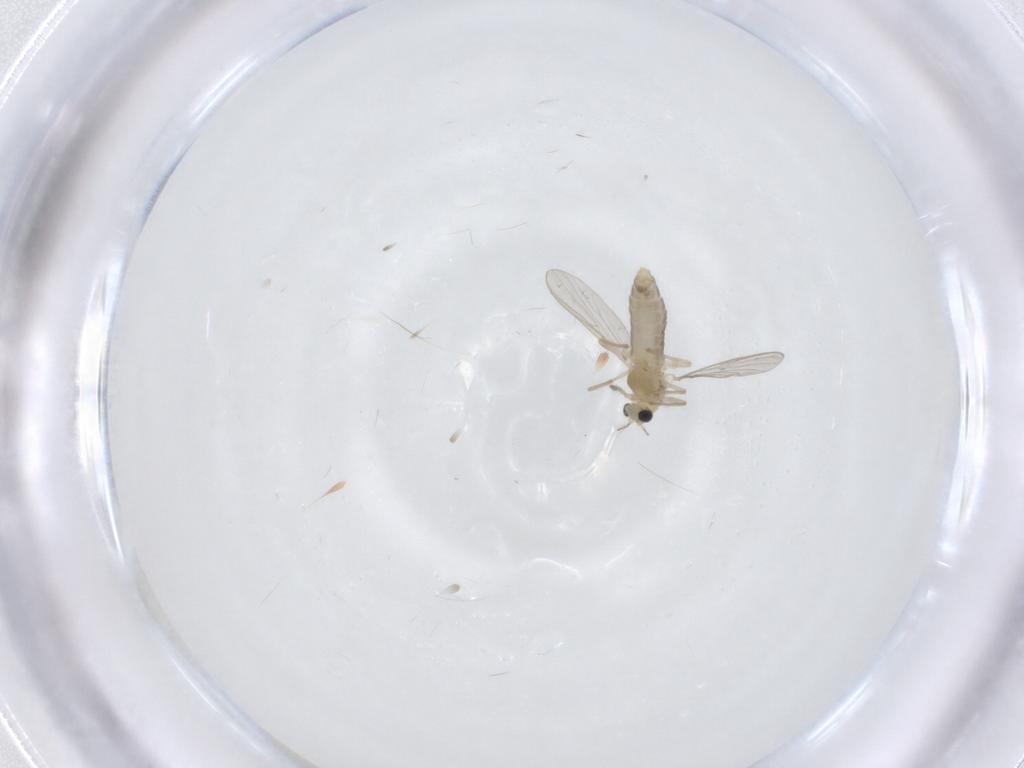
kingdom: Animalia
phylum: Arthropoda
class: Insecta
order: Diptera
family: Chironomidae
